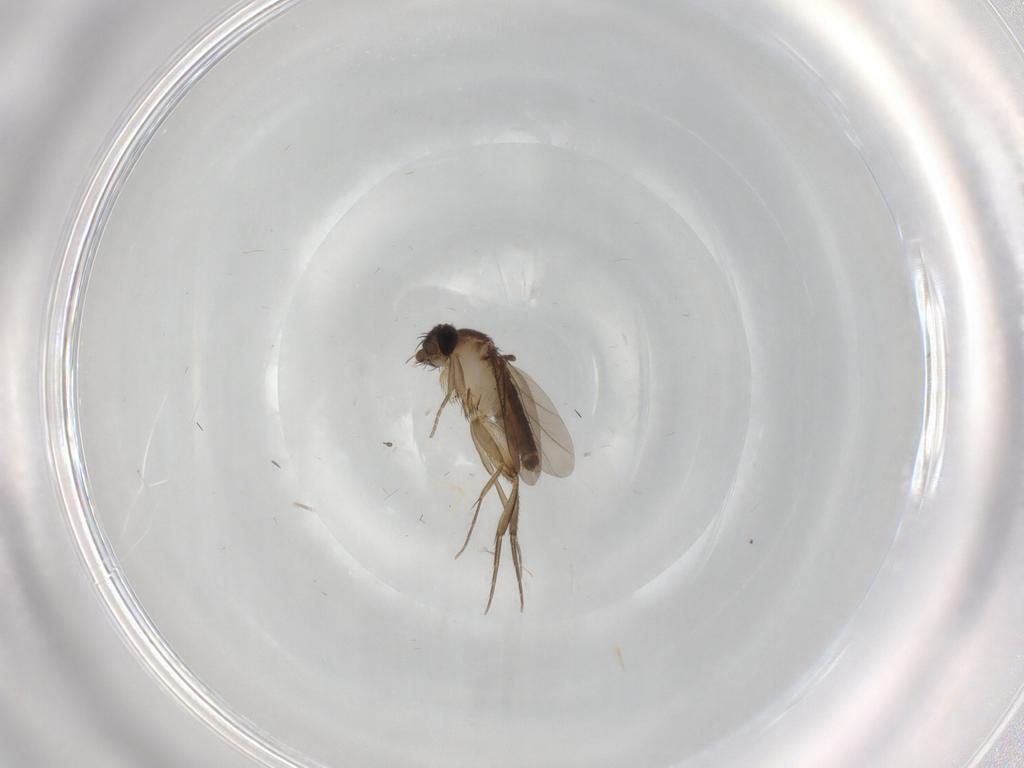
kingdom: Animalia
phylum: Arthropoda
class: Insecta
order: Diptera
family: Phoridae
